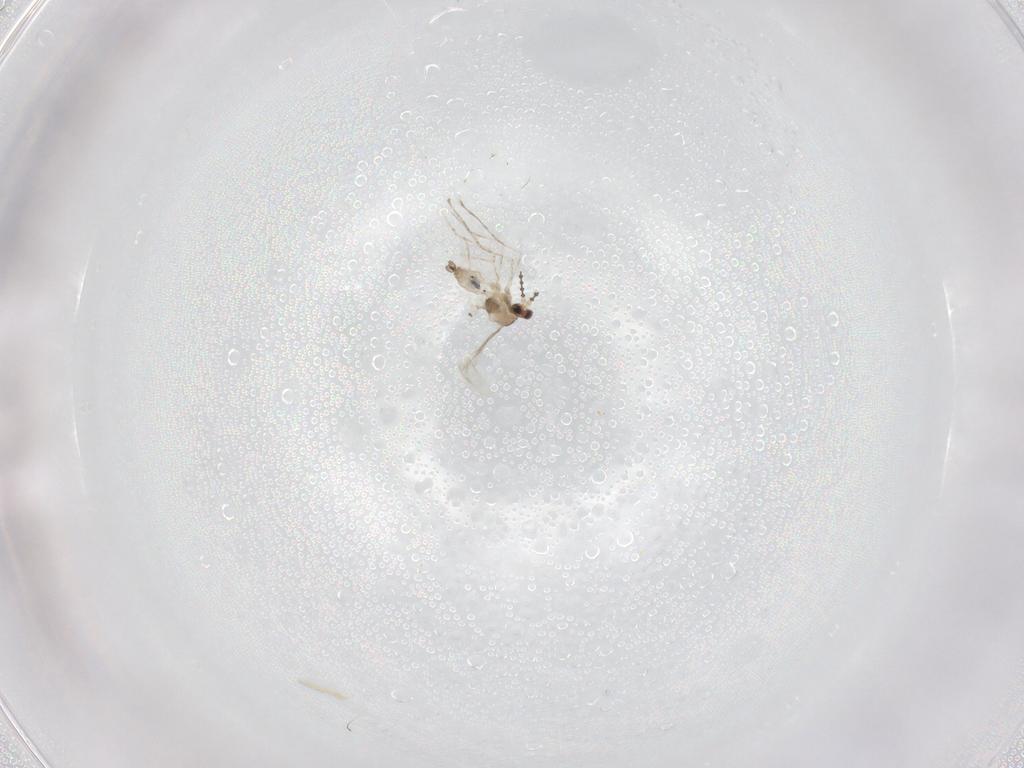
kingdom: Animalia
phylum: Arthropoda
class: Insecta
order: Diptera
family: Cecidomyiidae
